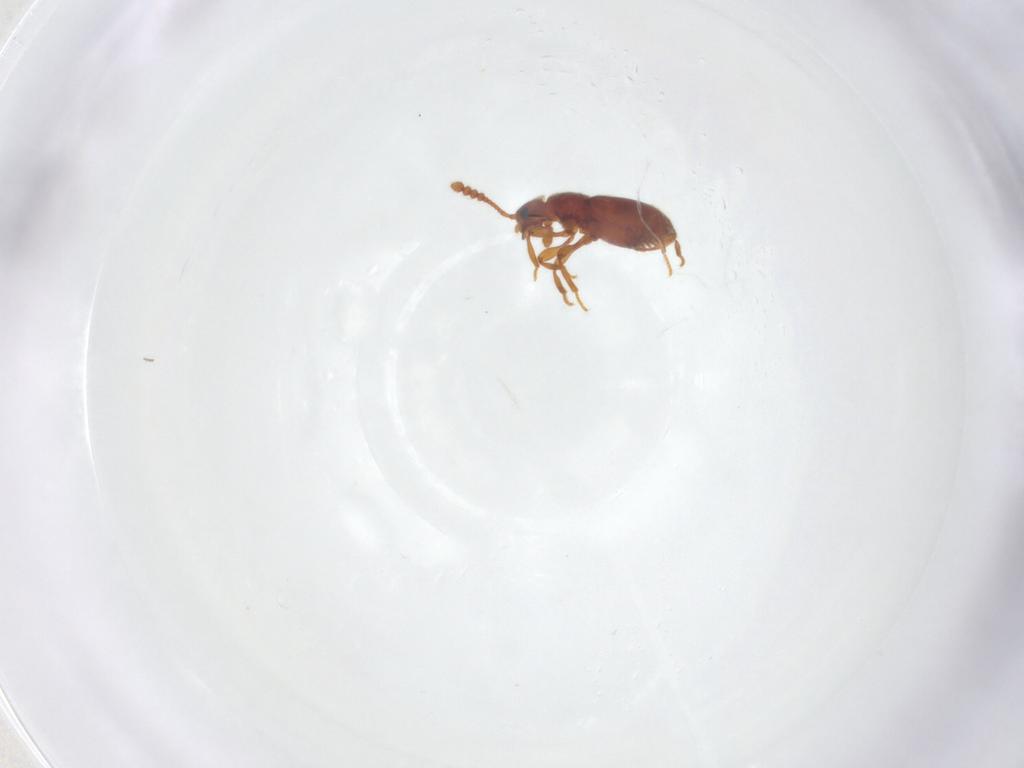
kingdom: Animalia
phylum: Arthropoda
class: Insecta
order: Coleoptera
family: Staphylinidae
